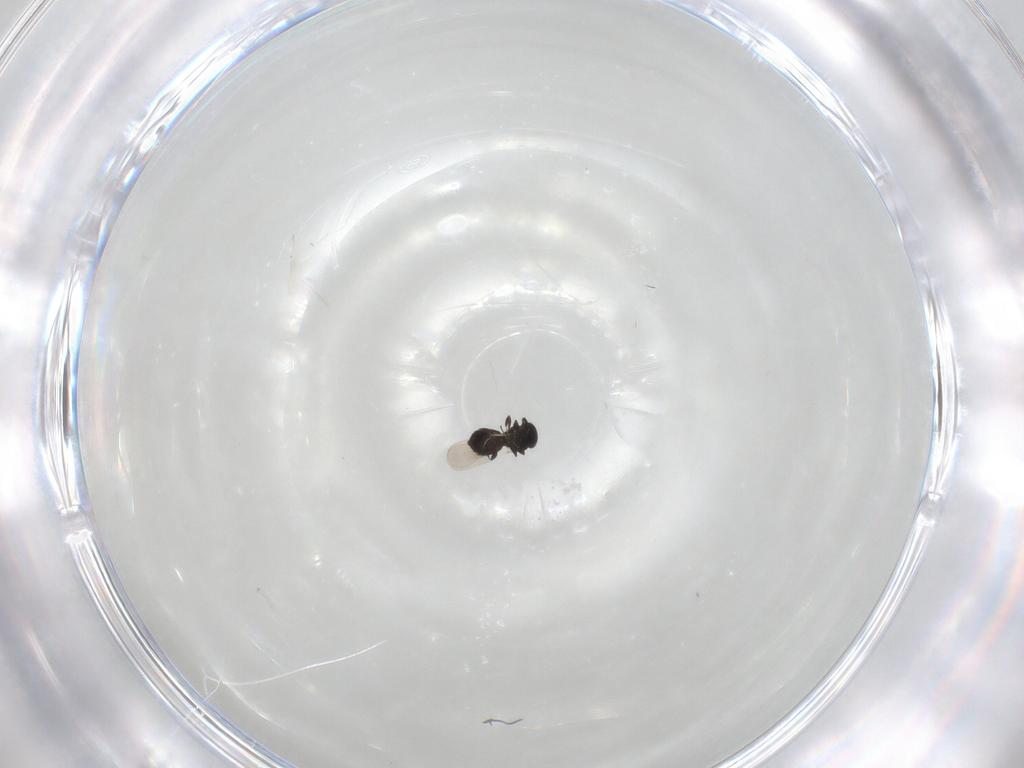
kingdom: Animalia
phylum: Arthropoda
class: Insecta
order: Hymenoptera
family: Platygastridae
